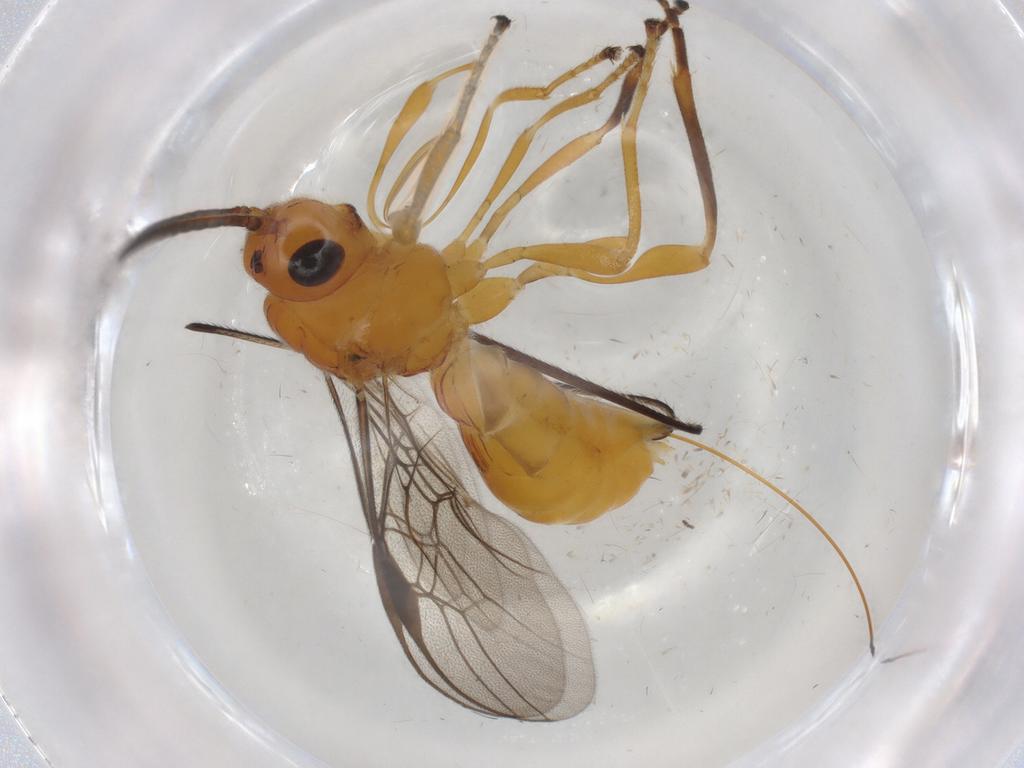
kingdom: Animalia
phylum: Arthropoda
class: Insecta
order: Hymenoptera
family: Braconidae
